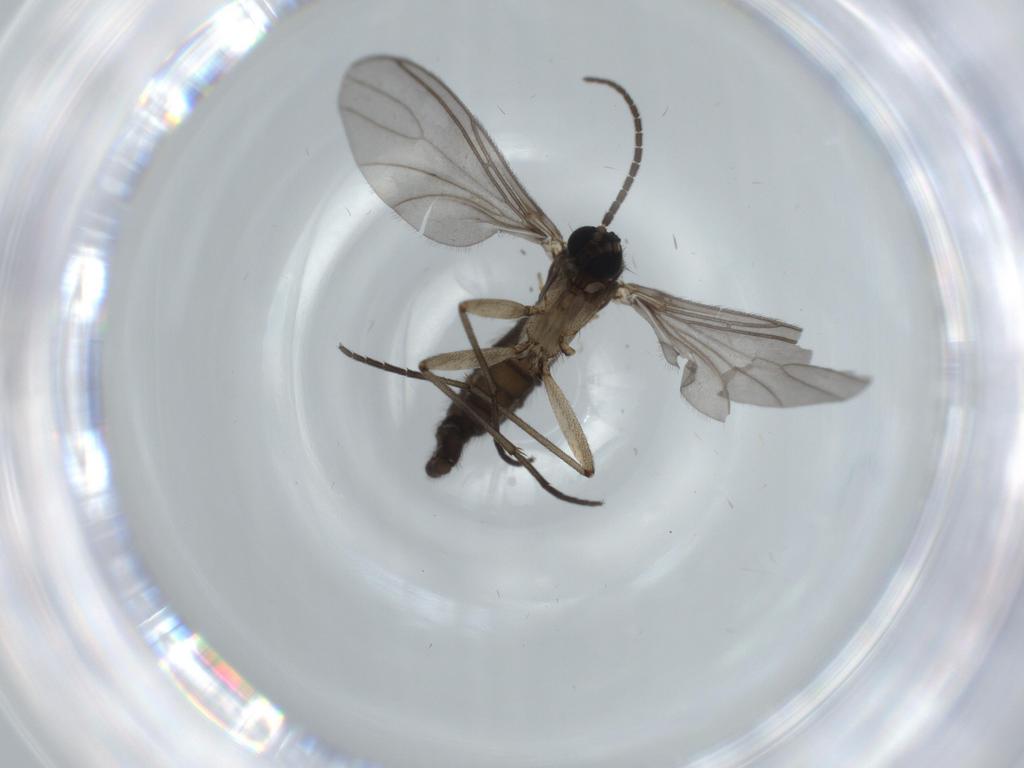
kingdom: Animalia
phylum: Arthropoda
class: Insecta
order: Diptera
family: Sciaridae
